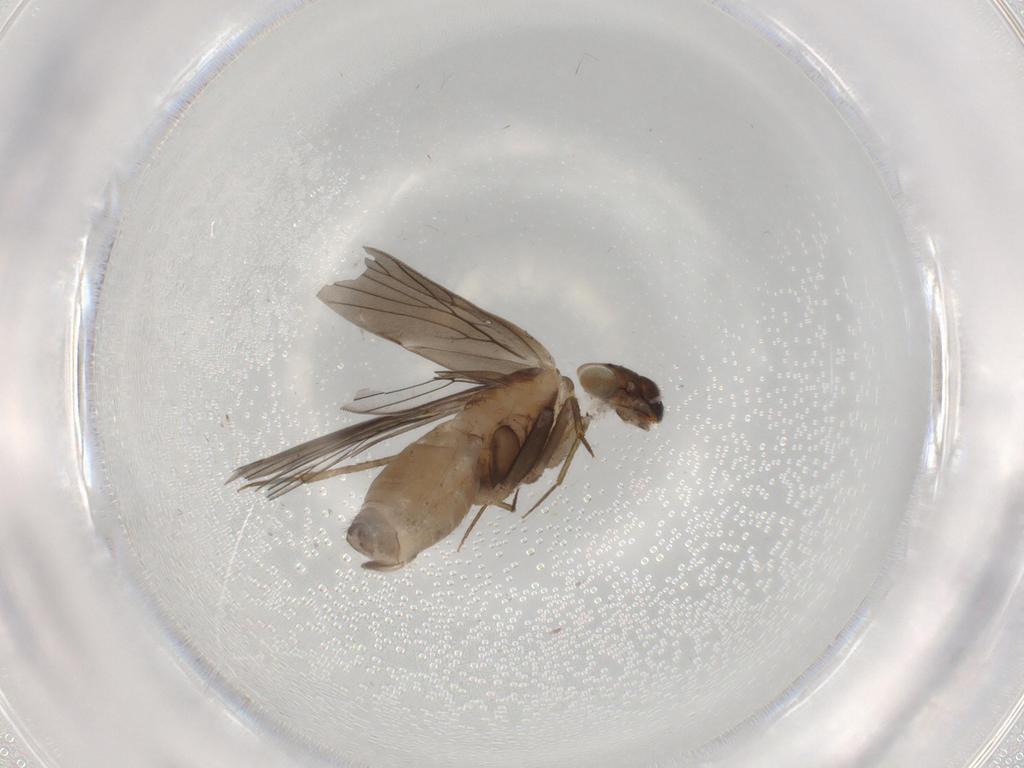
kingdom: Animalia
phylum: Arthropoda
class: Insecta
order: Psocodea
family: Lepidopsocidae
